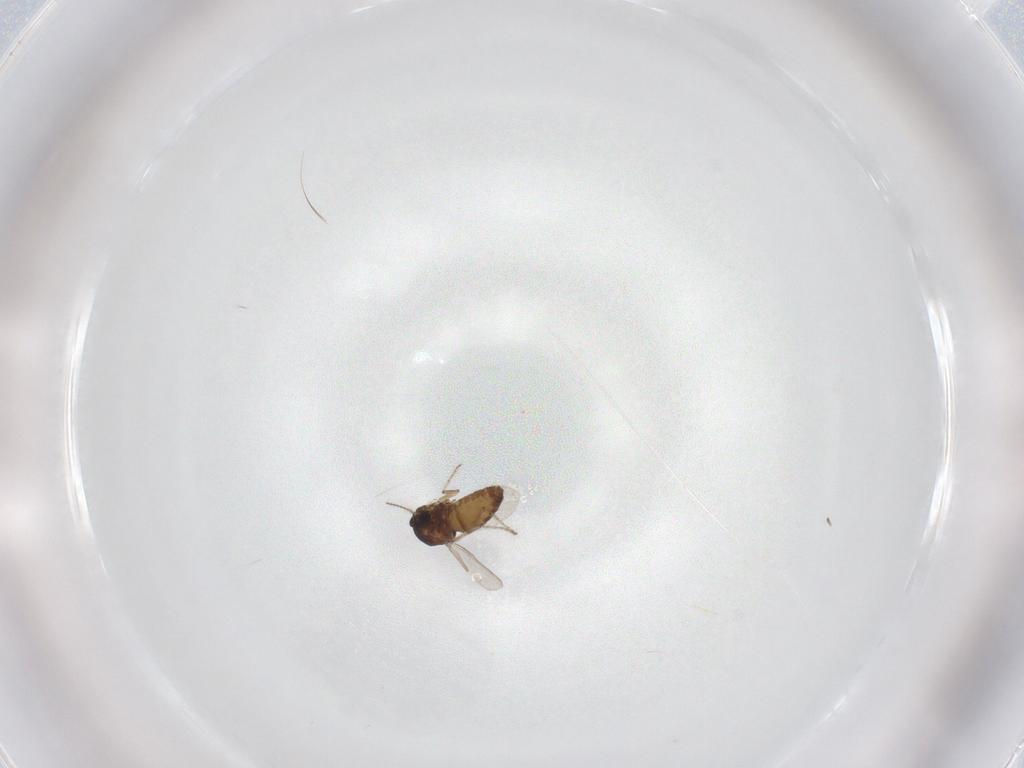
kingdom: Animalia
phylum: Arthropoda
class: Insecta
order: Diptera
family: Ceratopogonidae
